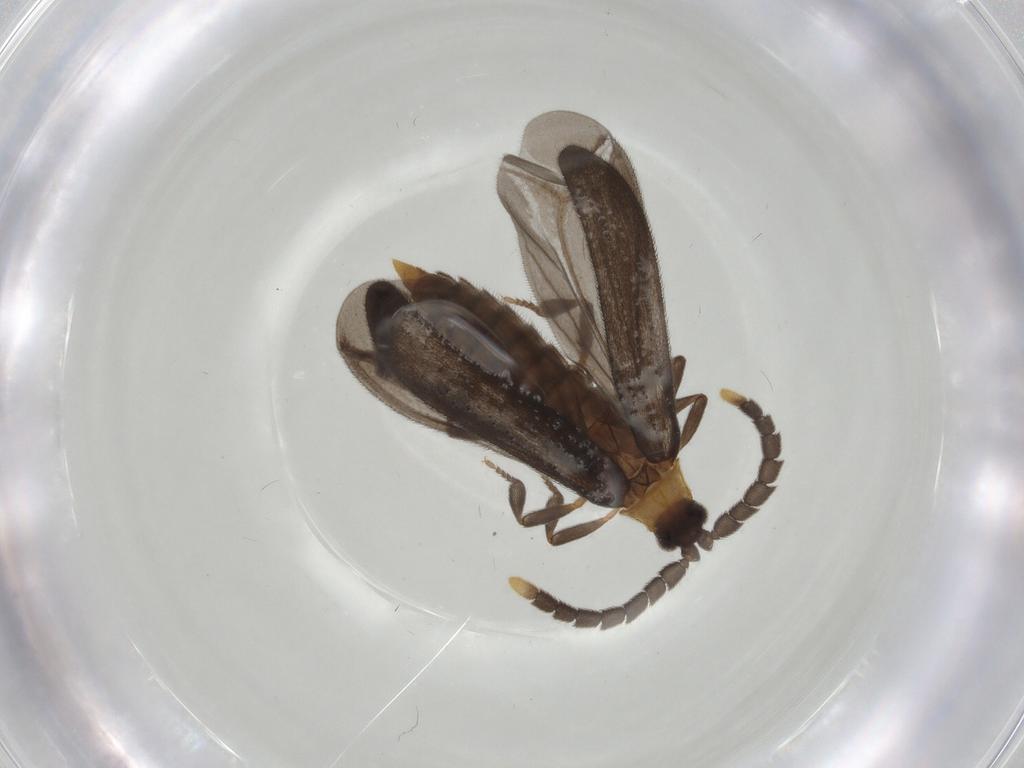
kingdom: Animalia
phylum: Arthropoda
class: Insecta
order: Coleoptera
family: Lycidae
